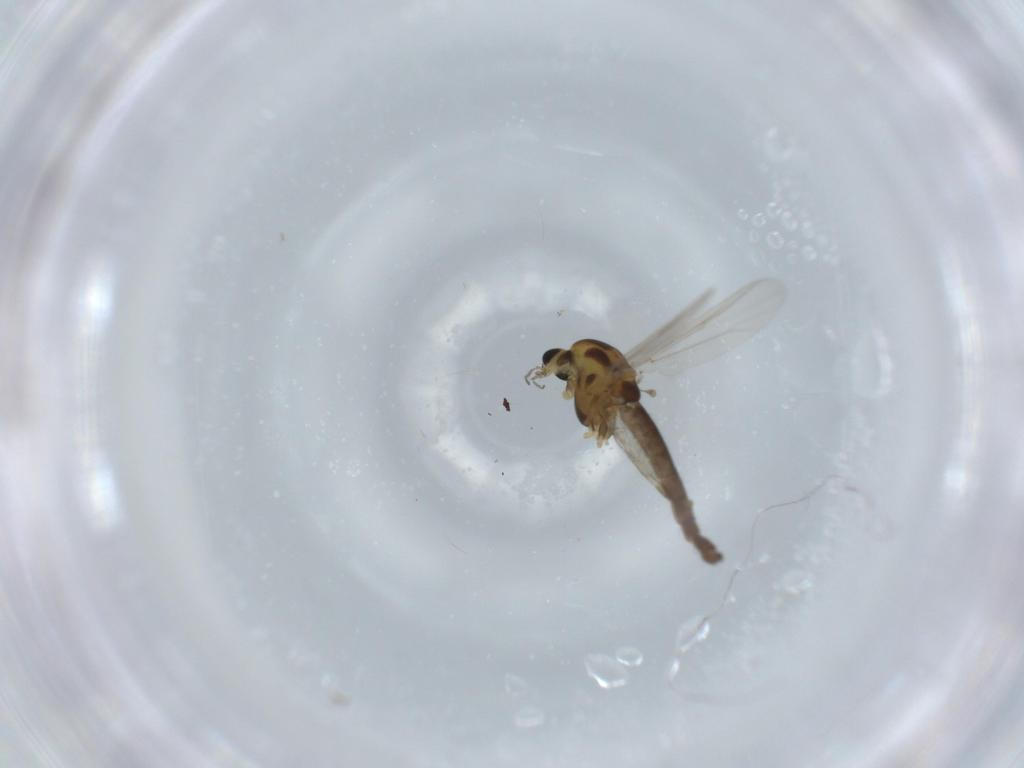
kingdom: Animalia
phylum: Arthropoda
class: Insecta
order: Diptera
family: Chironomidae
